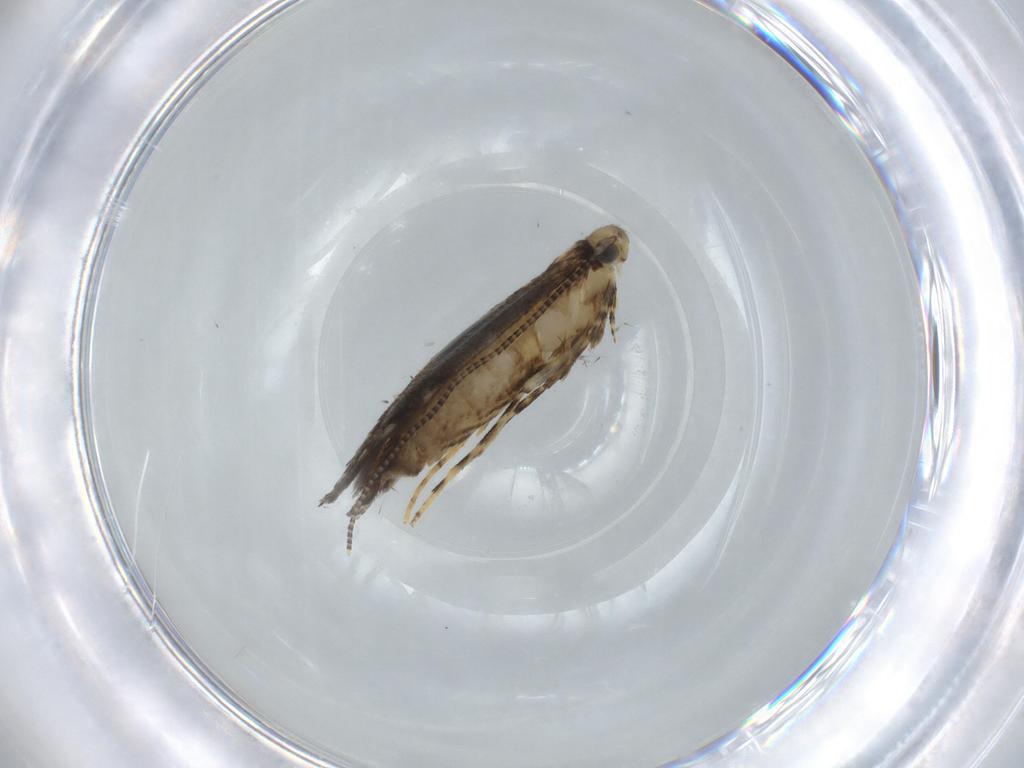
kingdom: Animalia
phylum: Arthropoda
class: Insecta
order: Lepidoptera
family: Gracillariidae
